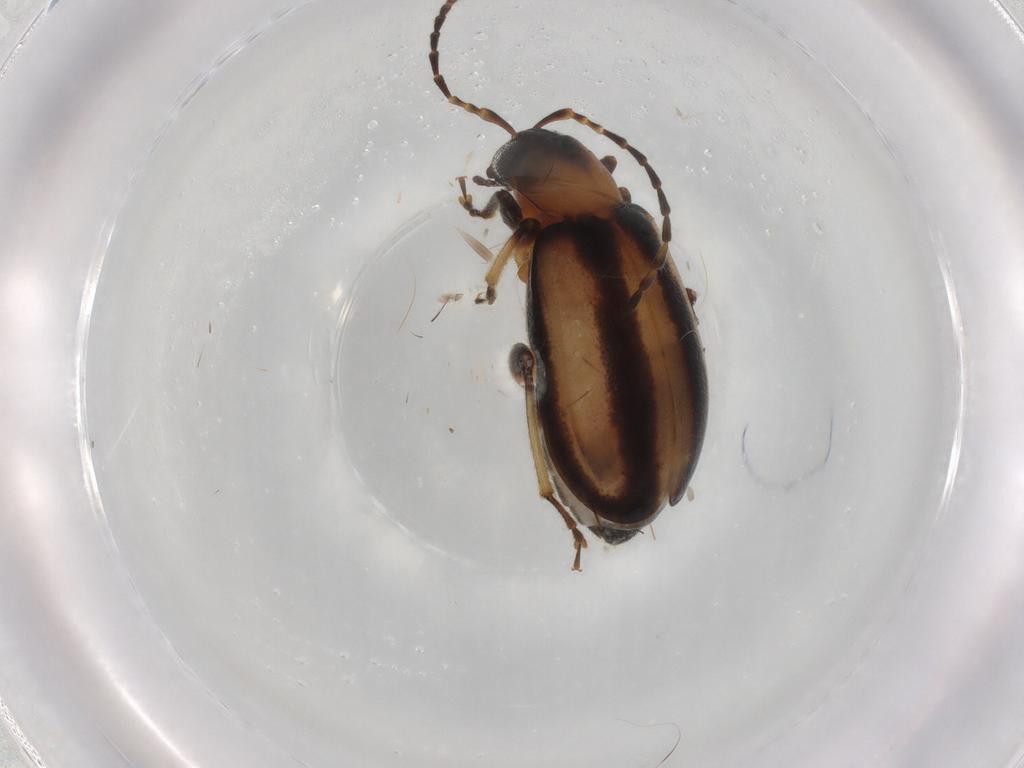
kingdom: Animalia
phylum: Arthropoda
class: Insecta
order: Coleoptera
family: Chrysomelidae
